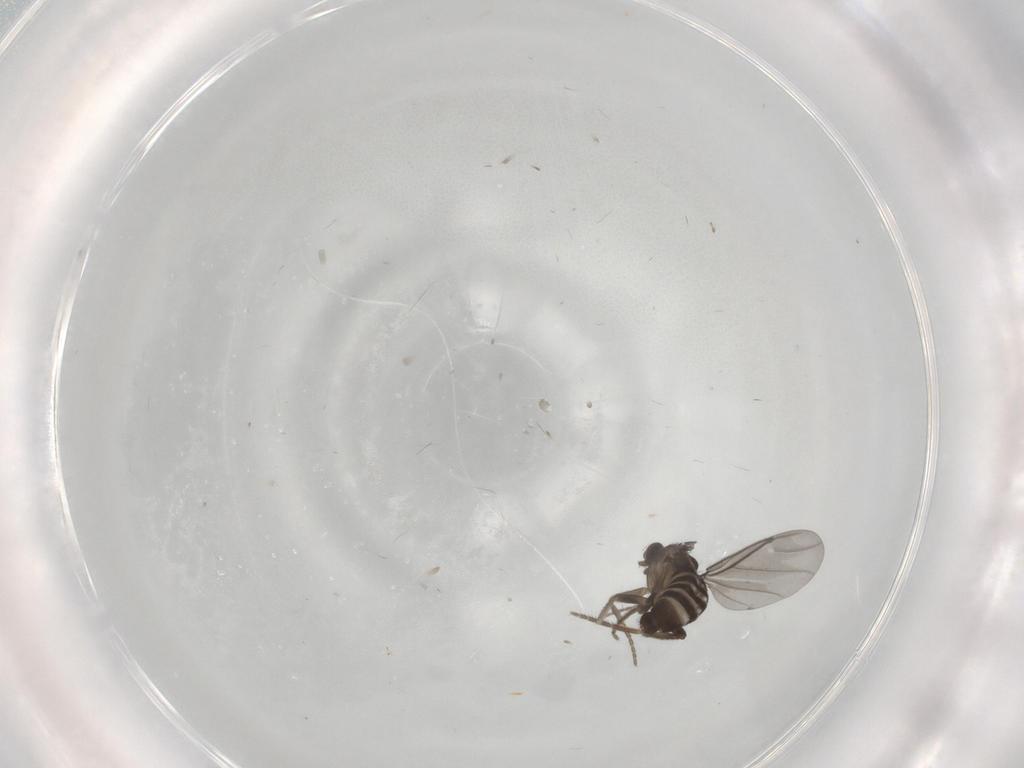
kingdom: Animalia
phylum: Arthropoda
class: Insecta
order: Diptera
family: Phoridae
